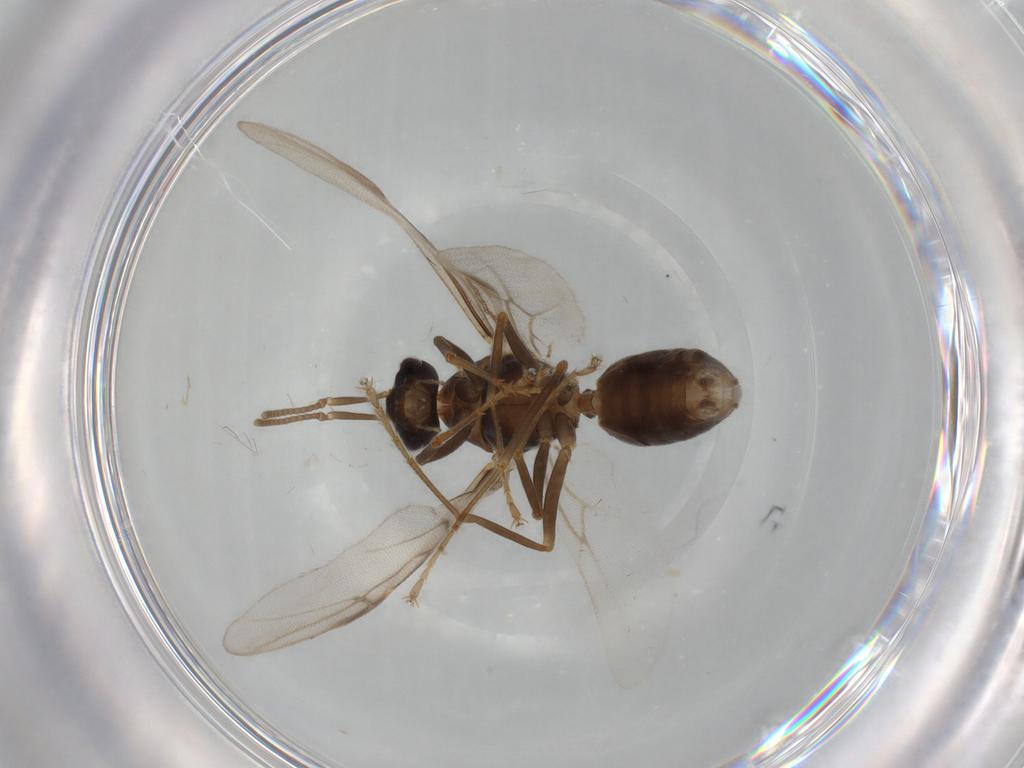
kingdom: Animalia
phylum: Arthropoda
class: Insecta
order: Hymenoptera
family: Formicidae
